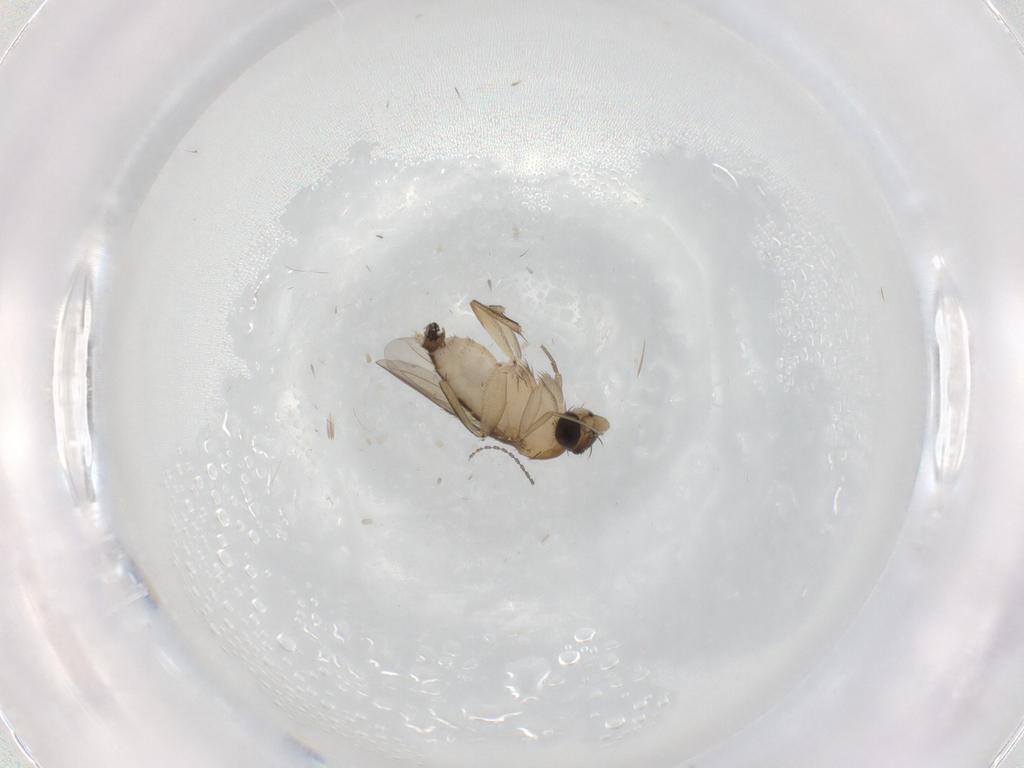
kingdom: Animalia
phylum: Arthropoda
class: Insecta
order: Diptera
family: Phoridae
